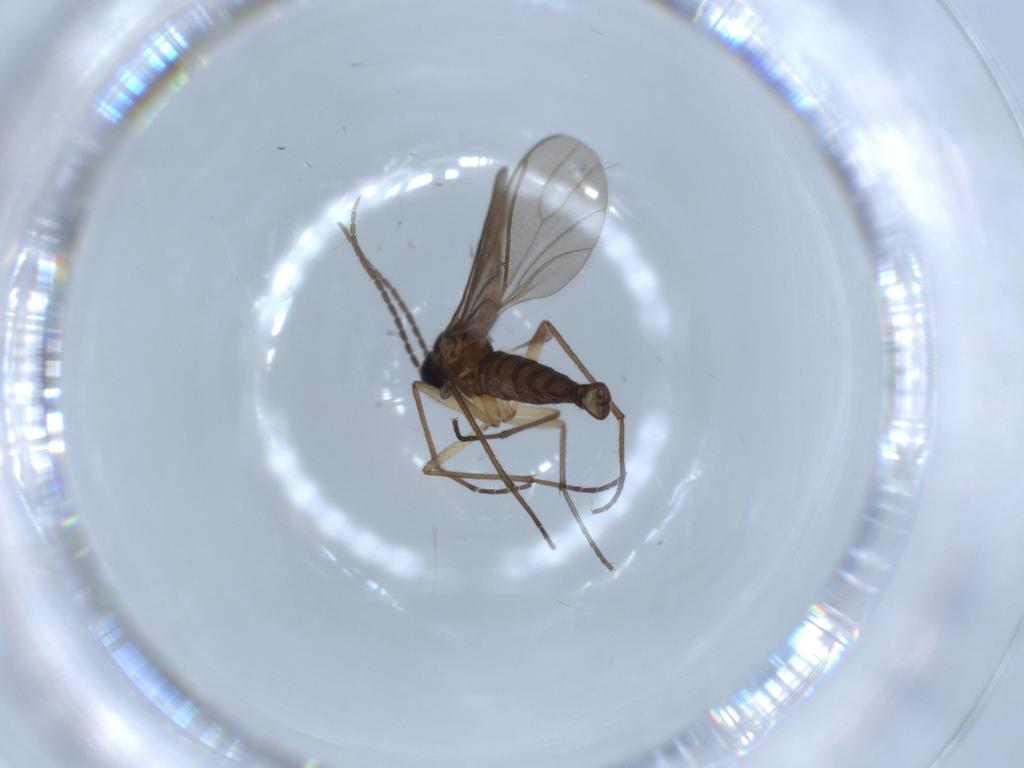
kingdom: Animalia
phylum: Arthropoda
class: Insecta
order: Diptera
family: Sciaridae
